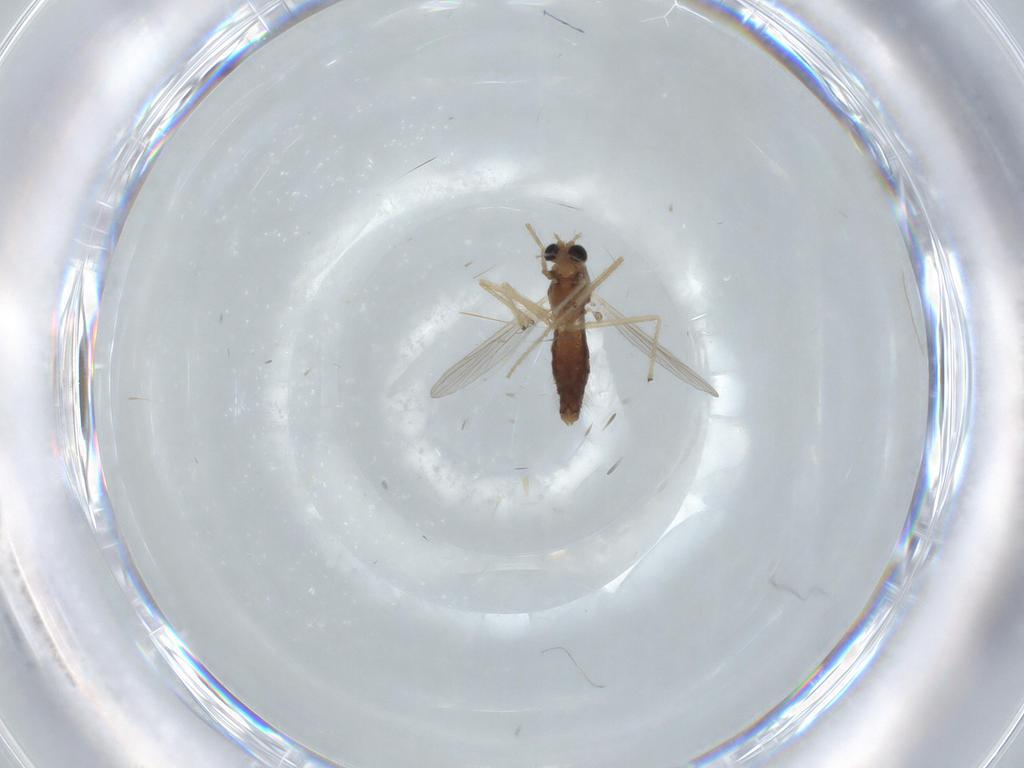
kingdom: Animalia
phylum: Arthropoda
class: Insecta
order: Diptera
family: Chironomidae
